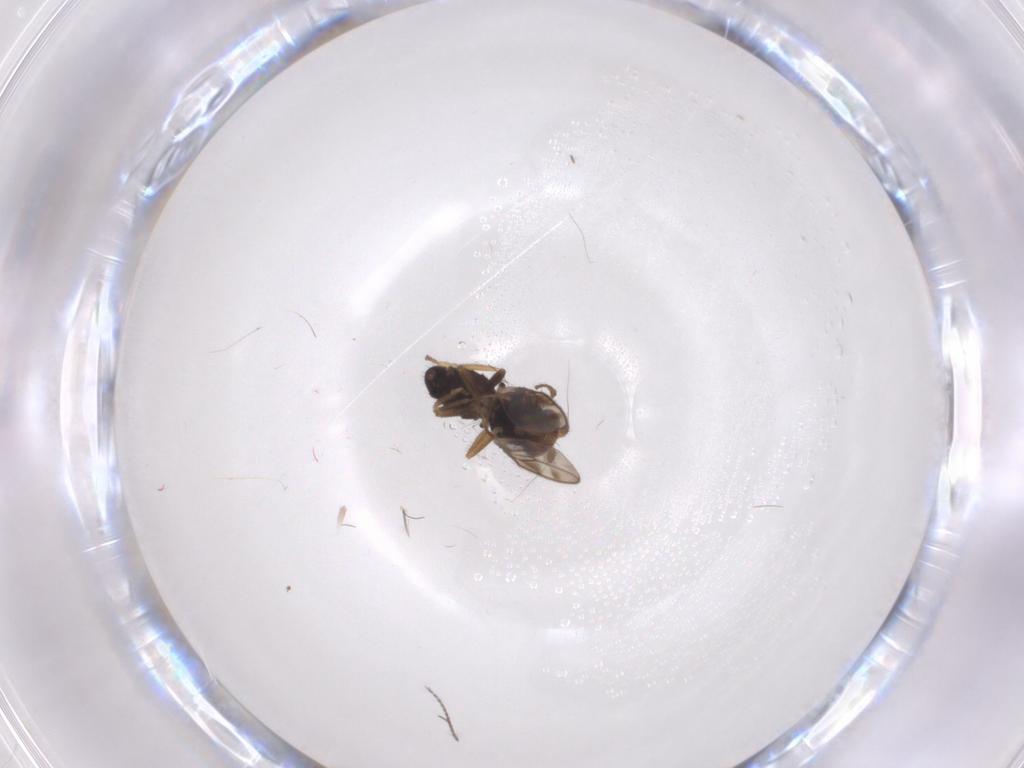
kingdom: Animalia
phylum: Arthropoda
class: Insecta
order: Diptera
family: Sphaeroceridae
